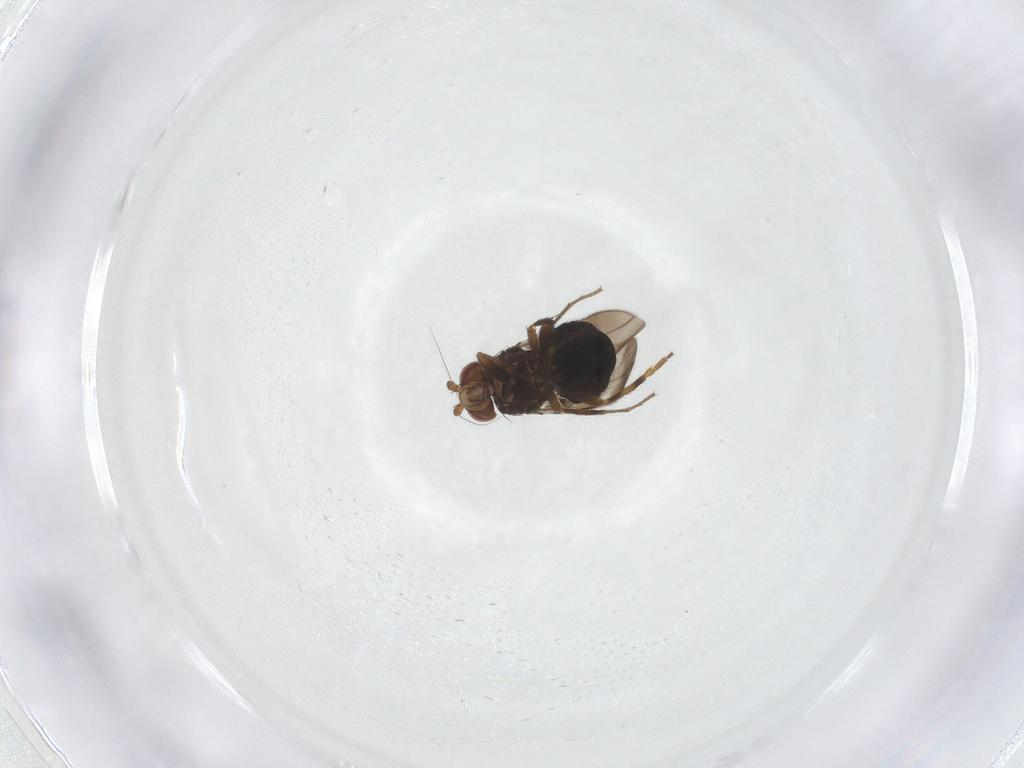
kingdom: Animalia
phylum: Arthropoda
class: Insecta
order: Diptera
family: Sphaeroceridae
